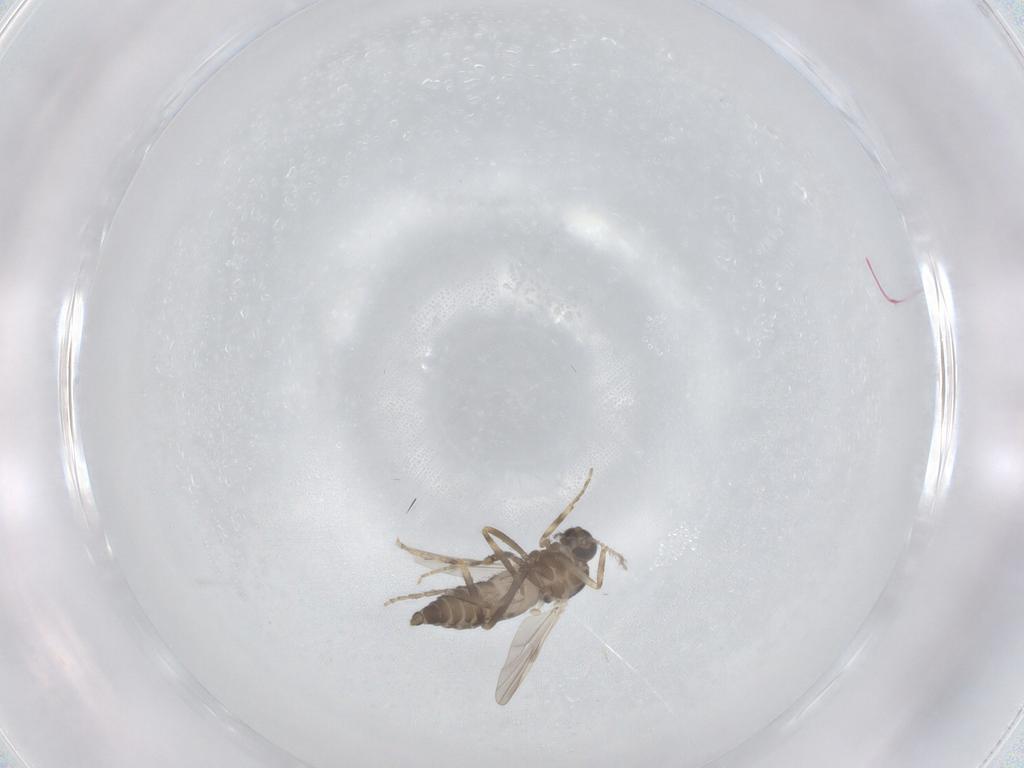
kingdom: Animalia
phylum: Arthropoda
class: Insecta
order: Diptera
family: Ceratopogonidae
